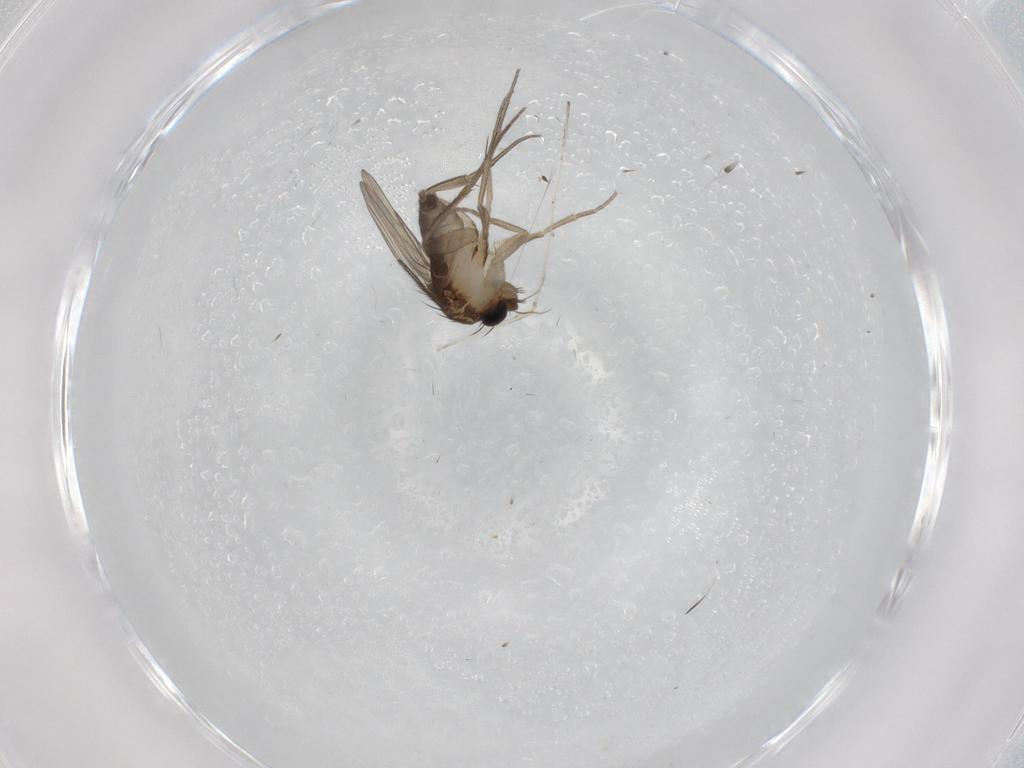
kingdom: Animalia
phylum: Arthropoda
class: Insecta
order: Diptera
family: Phoridae
